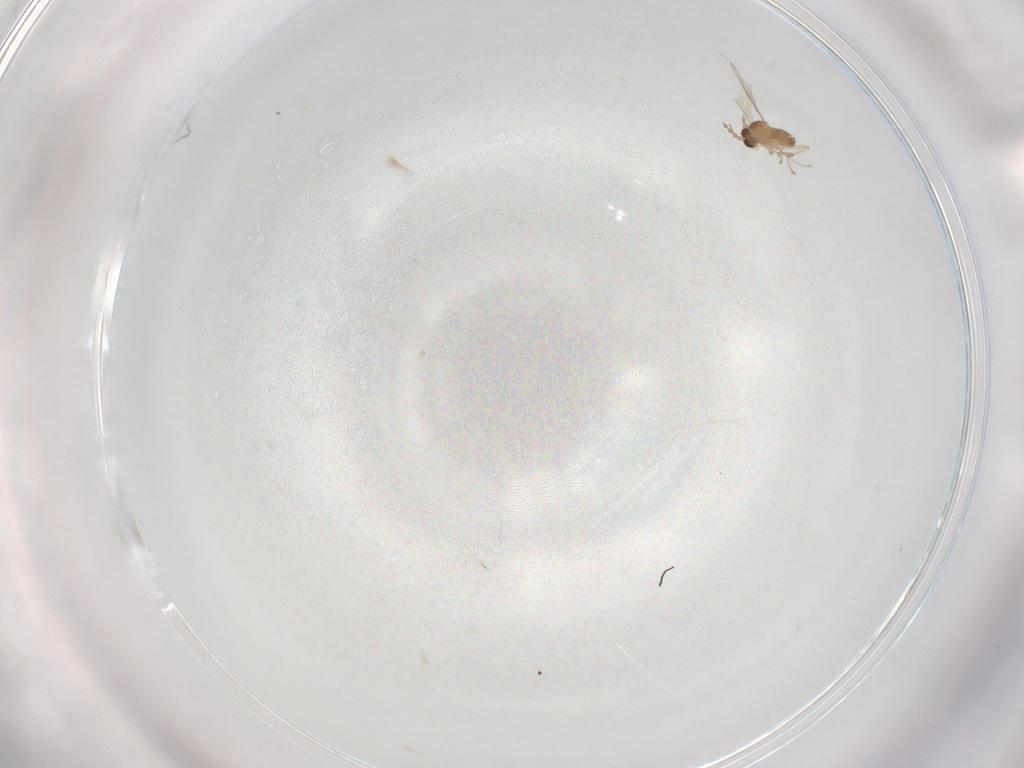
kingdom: Animalia
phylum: Arthropoda
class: Insecta
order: Diptera
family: Cecidomyiidae
